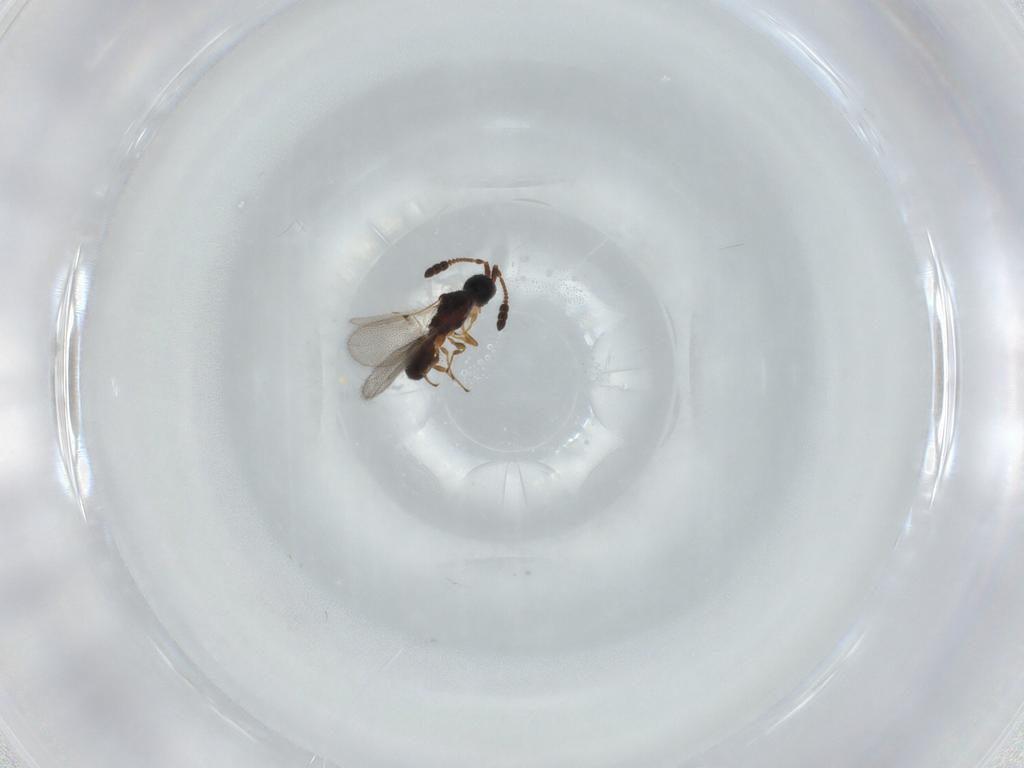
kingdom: Animalia
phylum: Arthropoda
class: Insecta
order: Hymenoptera
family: Diapriidae
